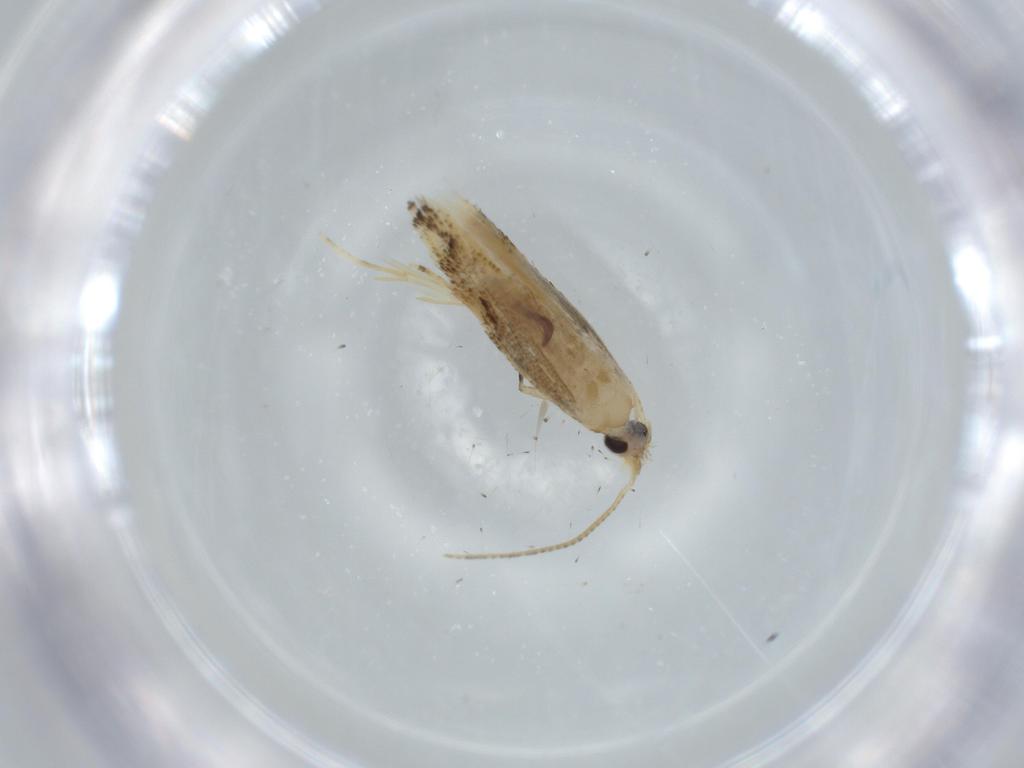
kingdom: Animalia
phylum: Arthropoda
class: Insecta
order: Lepidoptera
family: Bucculatricidae
